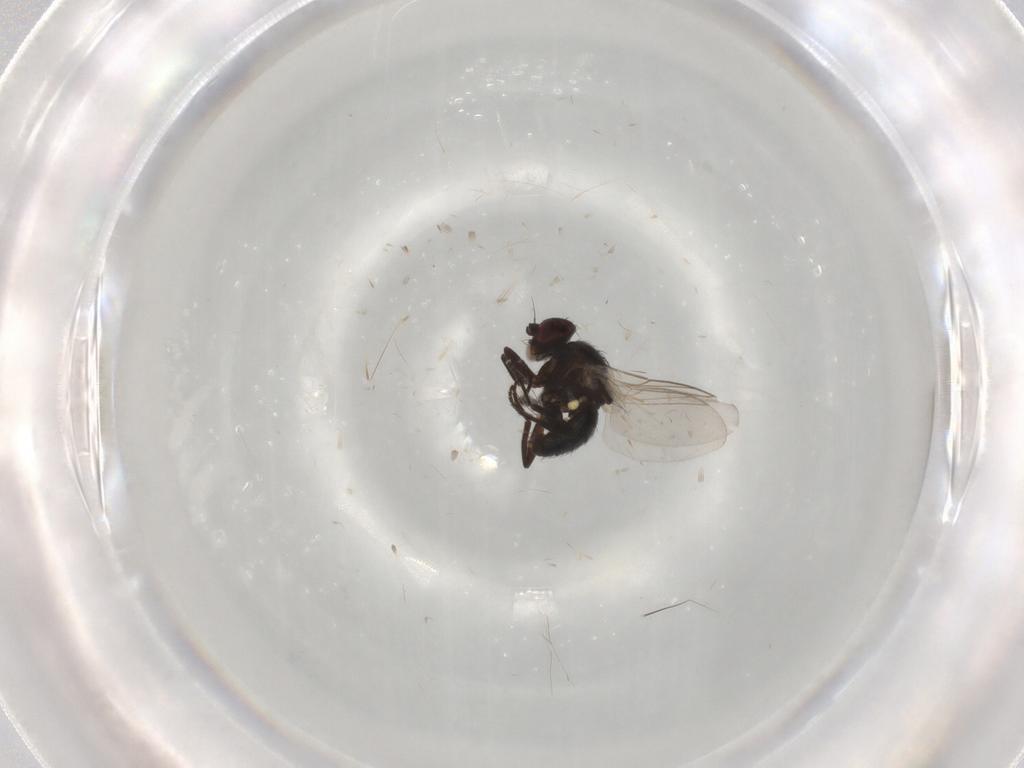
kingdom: Animalia
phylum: Arthropoda
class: Insecta
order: Diptera
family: Agromyzidae
